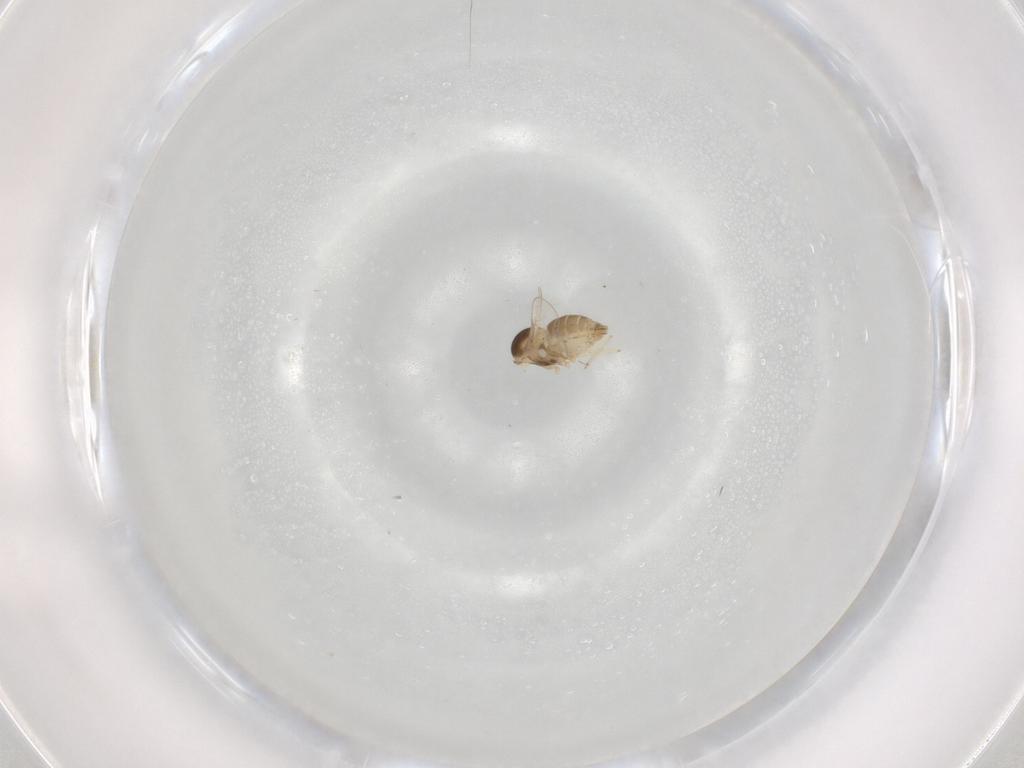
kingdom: Animalia
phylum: Arthropoda
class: Insecta
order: Diptera
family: Cecidomyiidae
